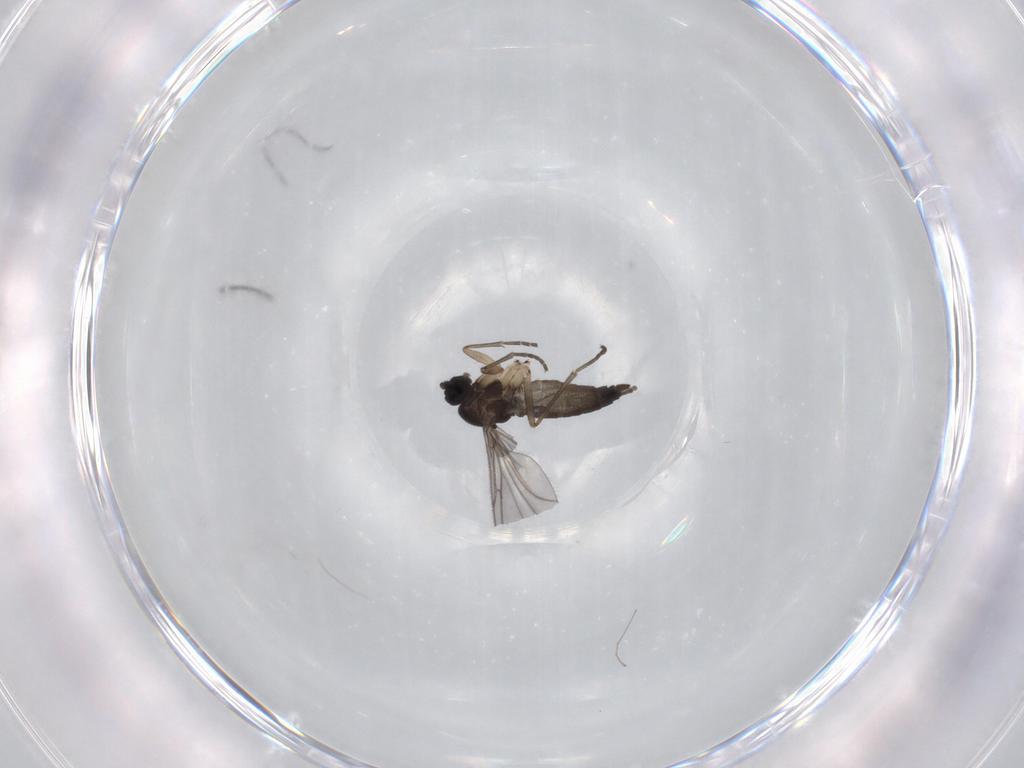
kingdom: Animalia
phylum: Arthropoda
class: Insecta
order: Diptera
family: Sciaridae
